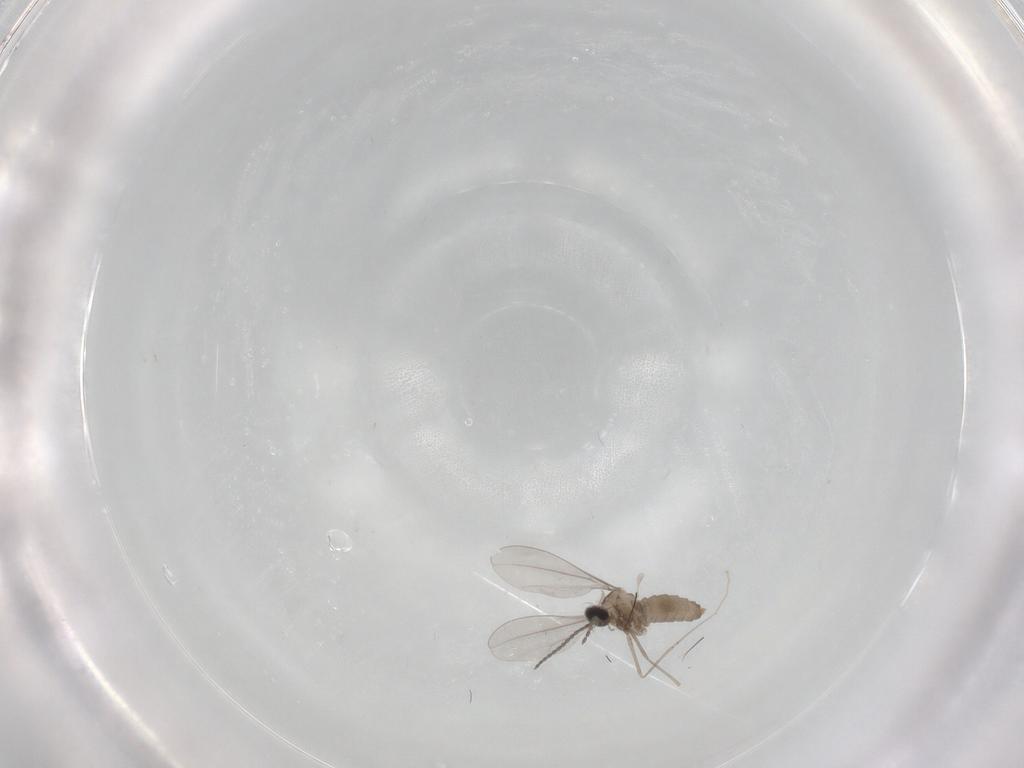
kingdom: Animalia
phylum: Arthropoda
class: Insecta
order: Diptera
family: Cecidomyiidae
